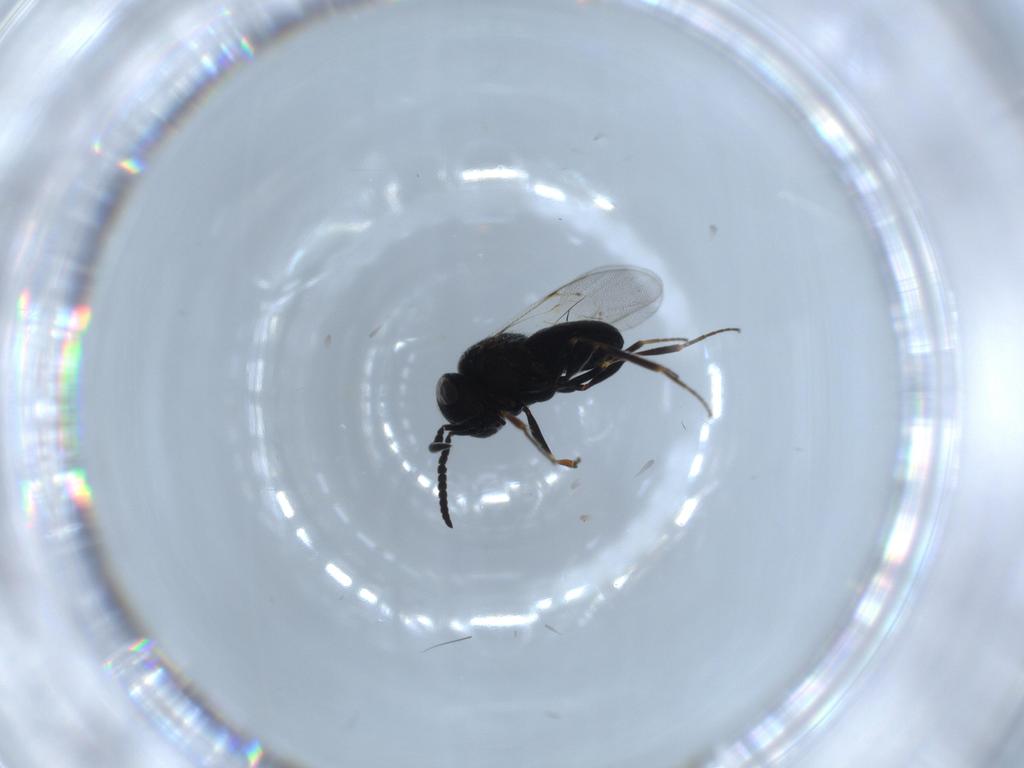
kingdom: Animalia
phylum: Arthropoda
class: Insecta
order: Hymenoptera
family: Scelionidae
